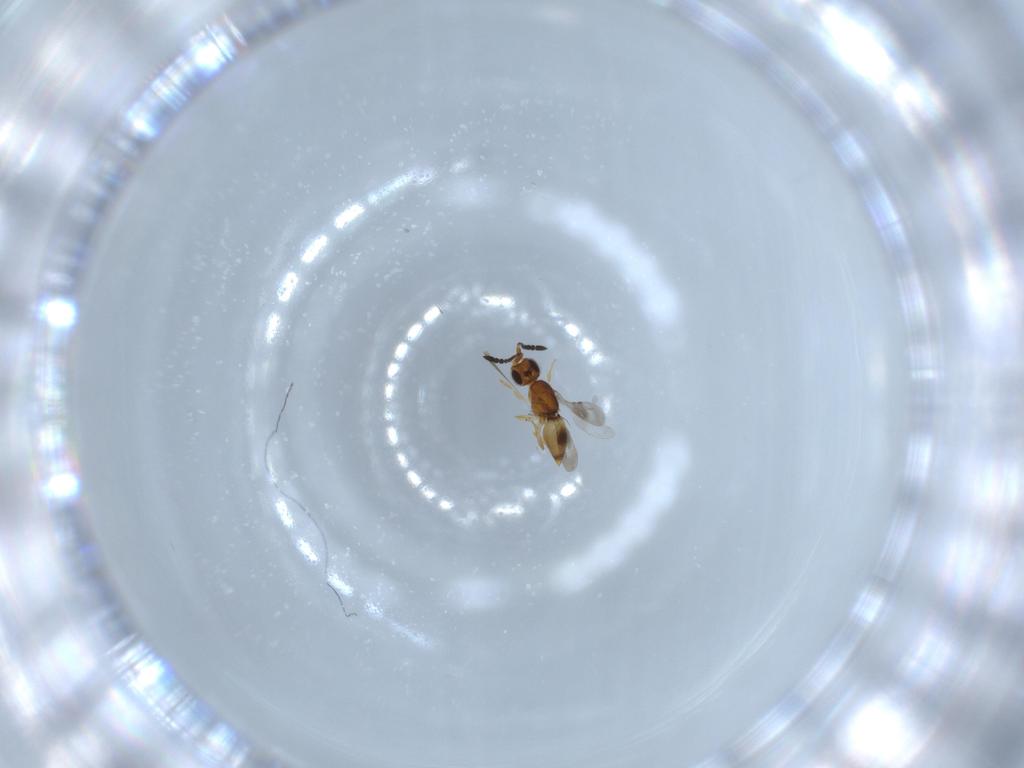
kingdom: Animalia
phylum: Arthropoda
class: Insecta
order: Hymenoptera
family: Ceraphronidae
